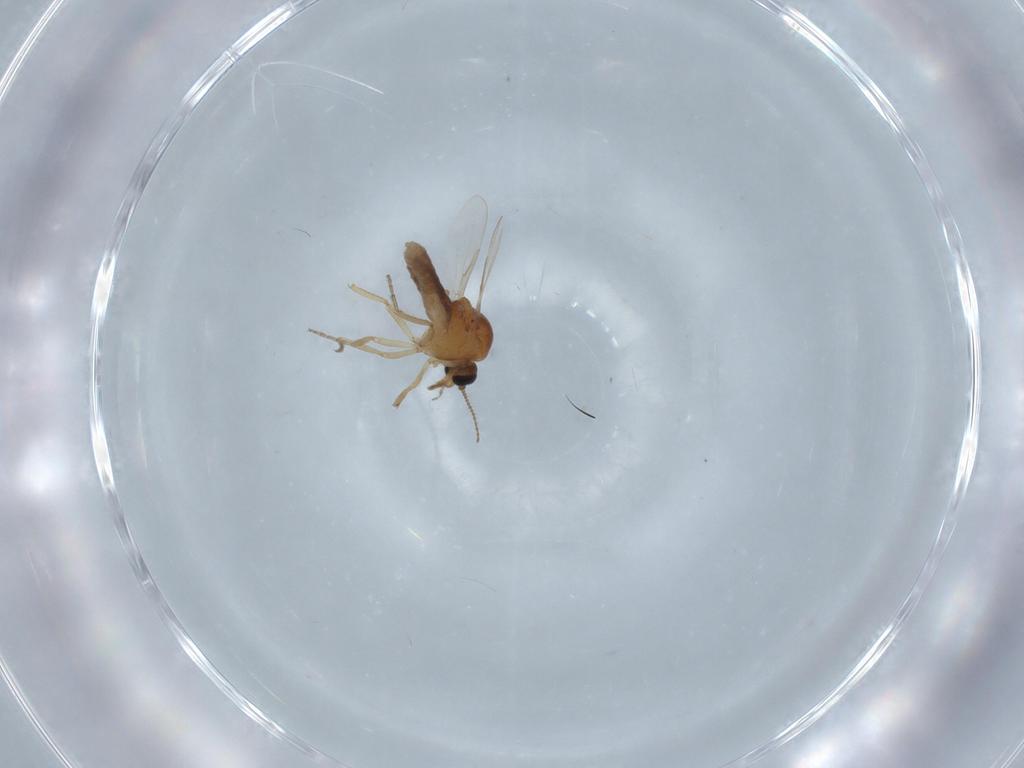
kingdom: Animalia
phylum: Arthropoda
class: Insecta
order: Diptera
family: Ceratopogonidae
